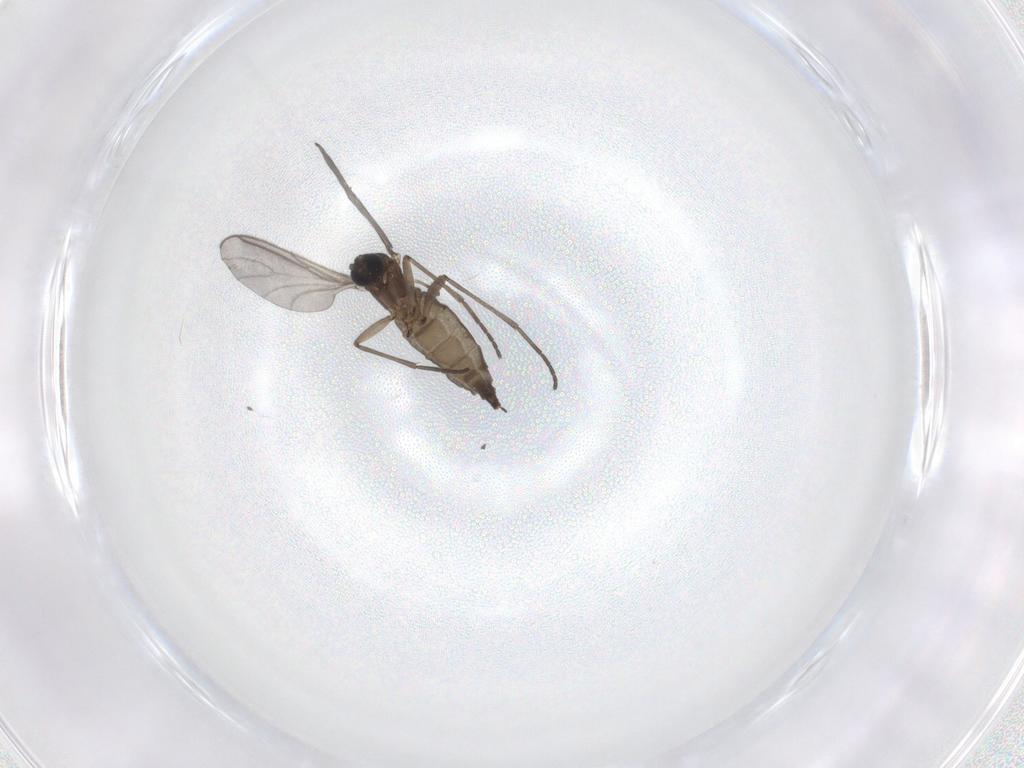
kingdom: Animalia
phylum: Arthropoda
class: Insecta
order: Diptera
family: Sciaridae
